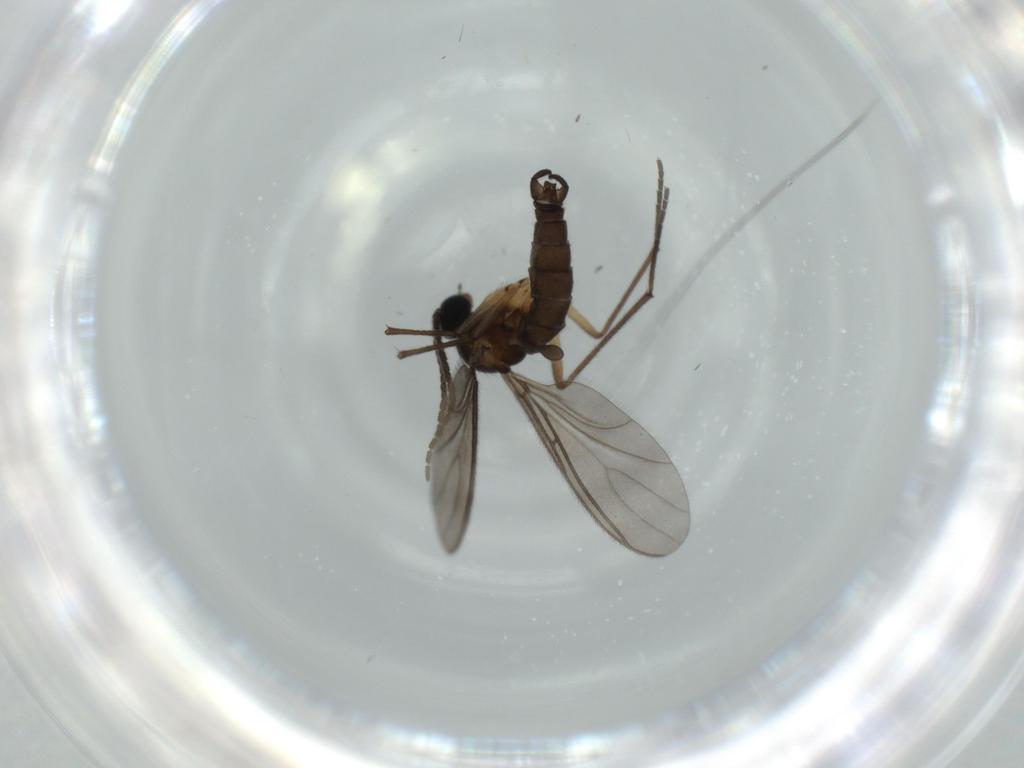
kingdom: Animalia
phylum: Arthropoda
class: Insecta
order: Diptera
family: Sciaridae
